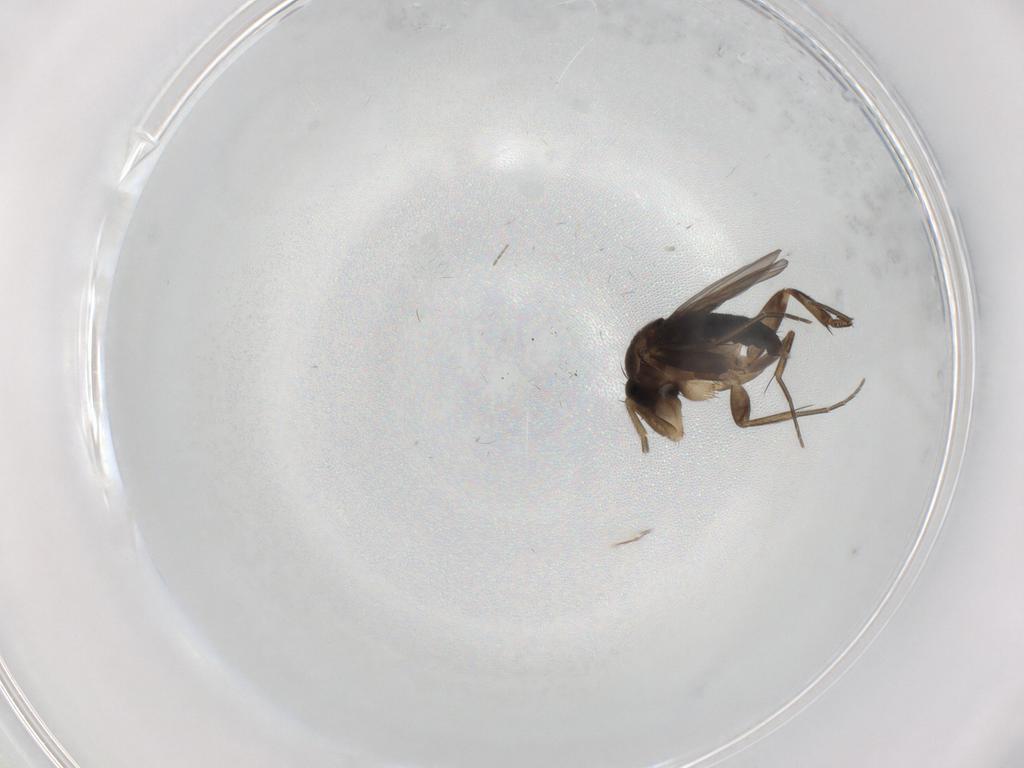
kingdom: Animalia
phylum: Arthropoda
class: Insecta
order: Diptera
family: Phoridae
